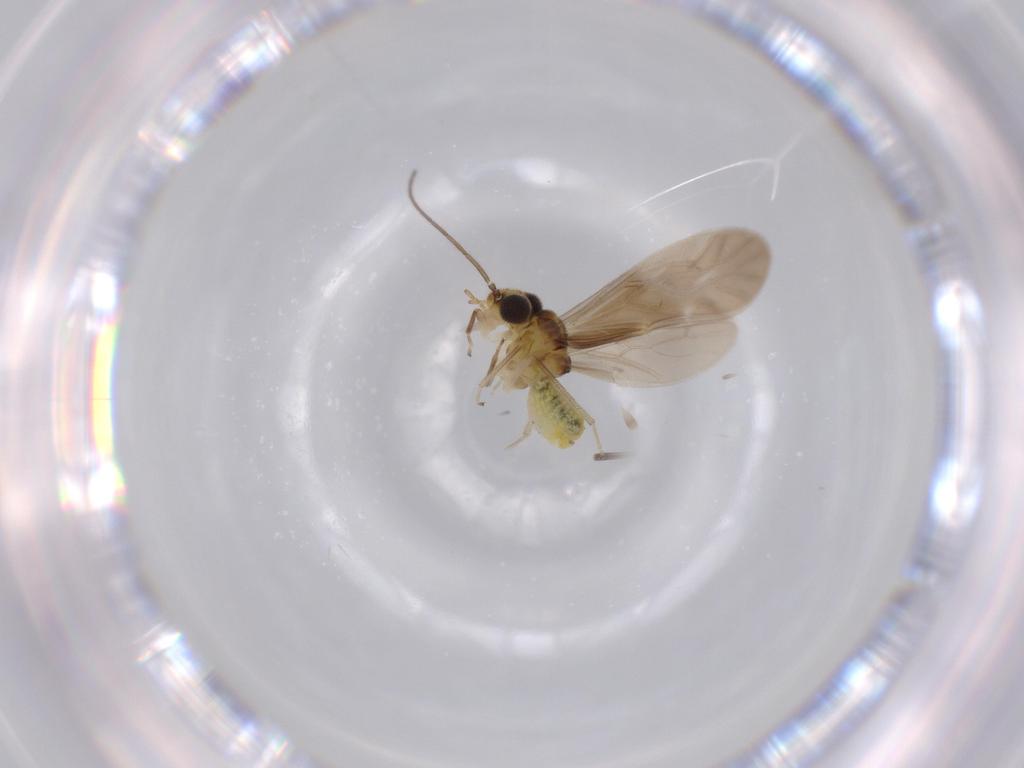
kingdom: Animalia
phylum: Arthropoda
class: Insecta
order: Psocodea
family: Caeciliusidae
